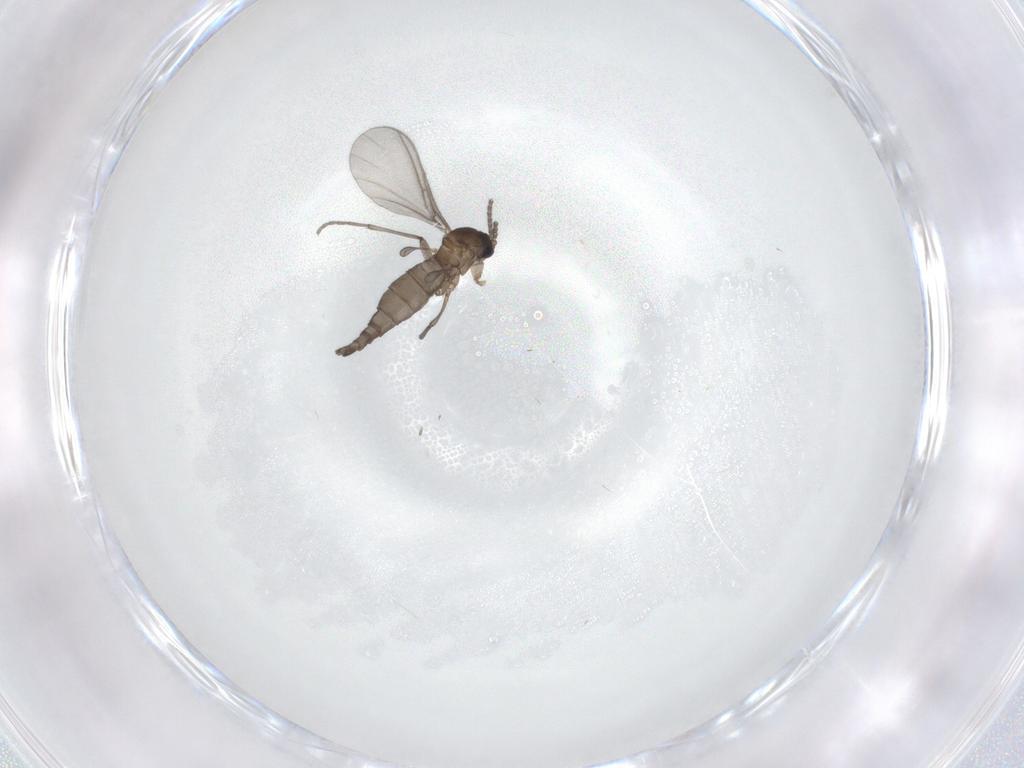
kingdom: Animalia
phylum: Arthropoda
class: Insecta
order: Diptera
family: Sciaridae
